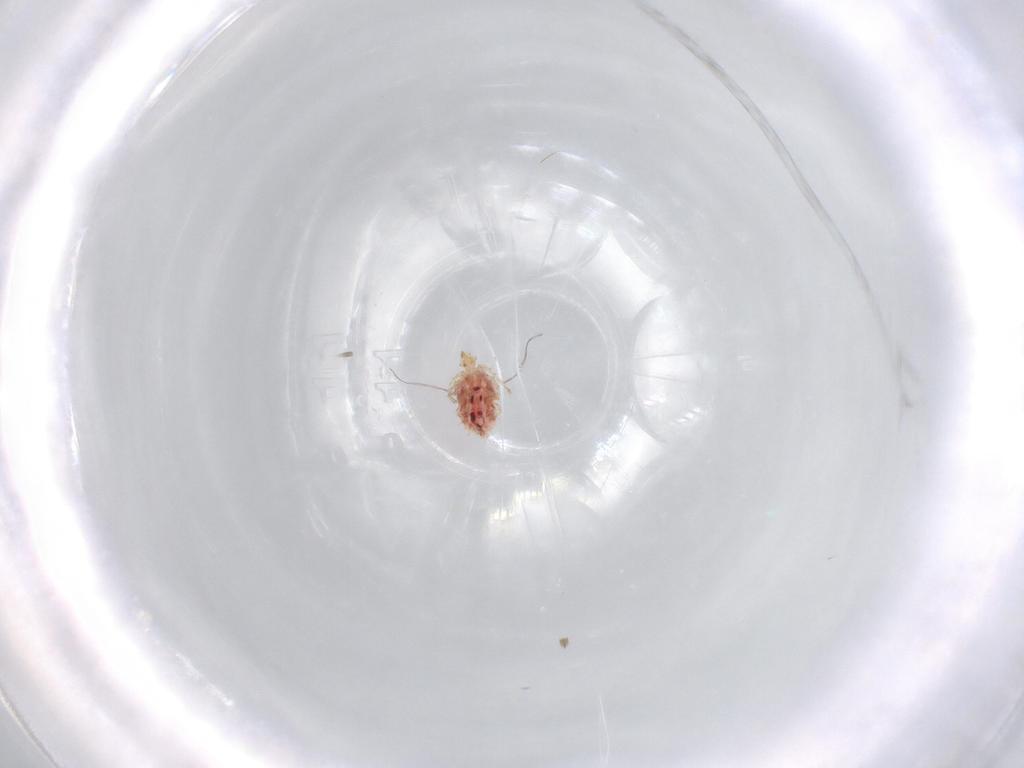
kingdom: Animalia
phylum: Arthropoda
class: Arachnida
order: Trombidiformes
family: Erythraeidae
